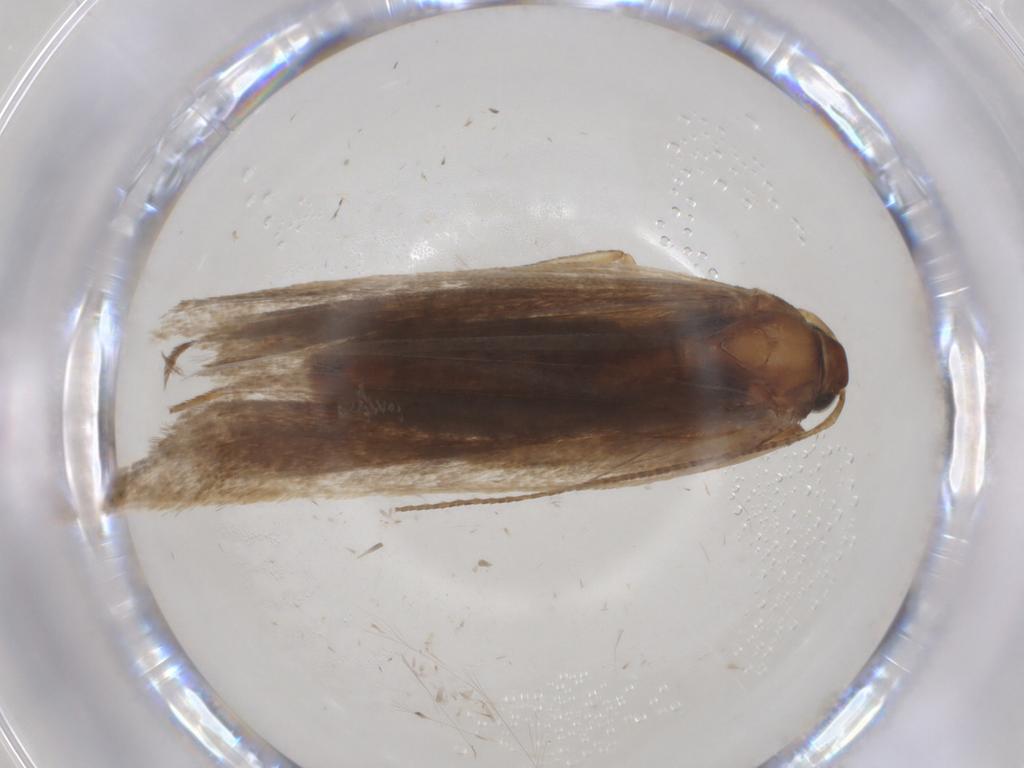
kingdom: Animalia
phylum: Arthropoda
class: Insecta
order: Lepidoptera
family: Gelechiidae
